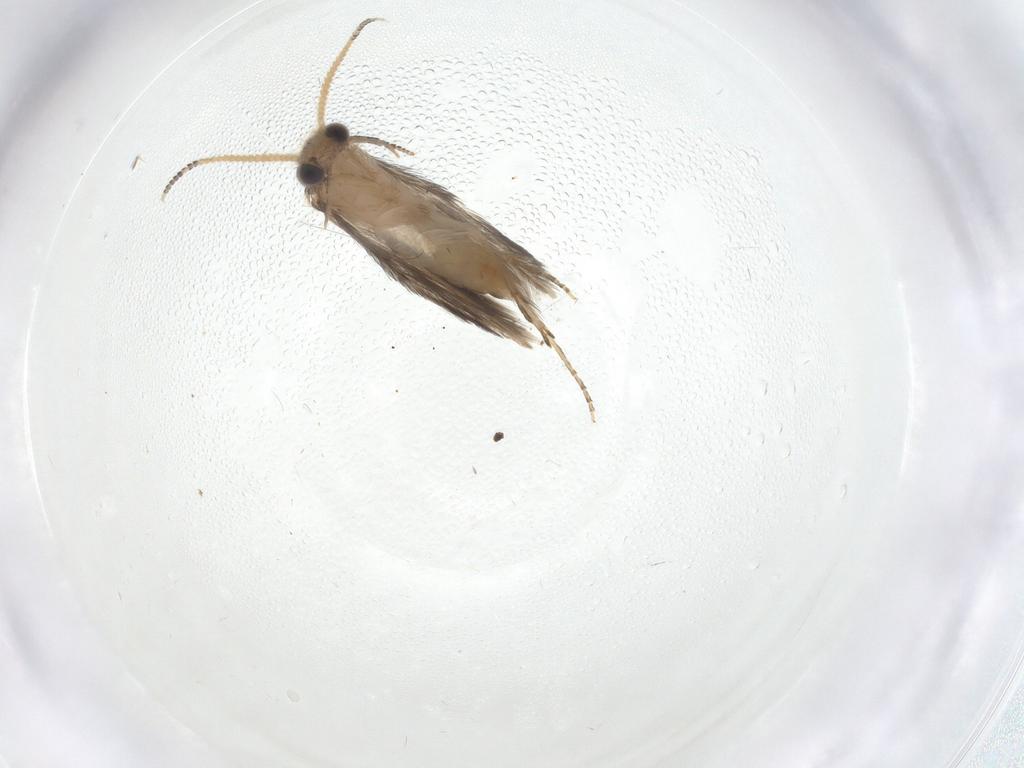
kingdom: Animalia
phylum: Arthropoda
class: Insecta
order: Trichoptera
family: Hydroptilidae
